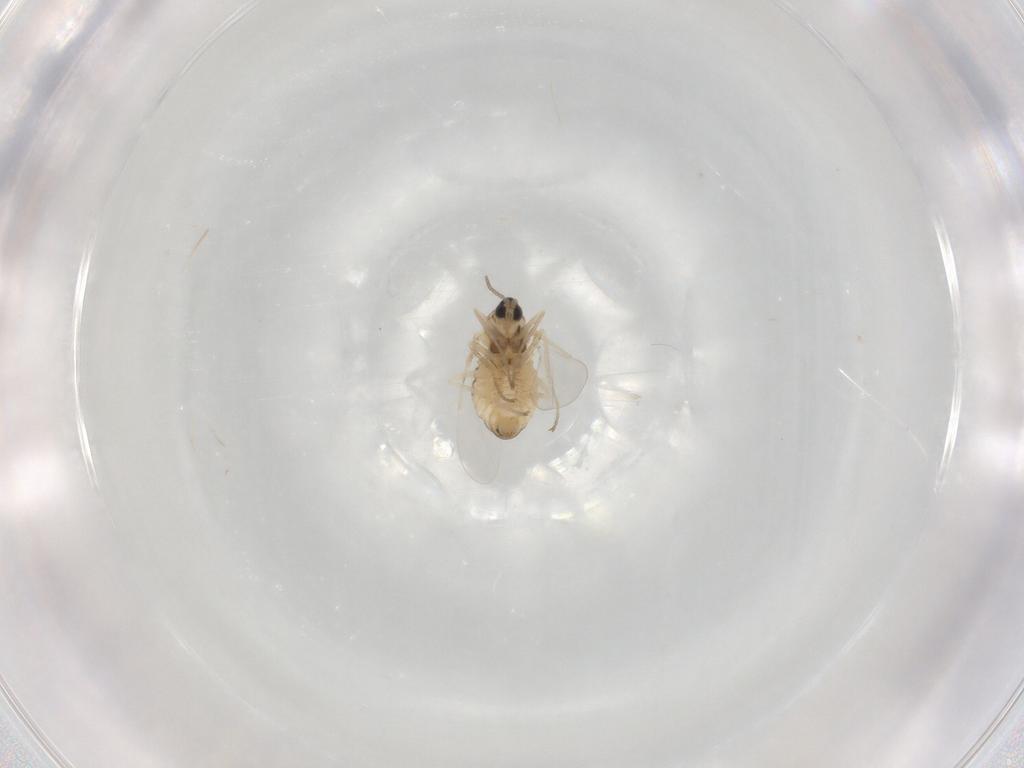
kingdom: Animalia
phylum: Arthropoda
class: Insecta
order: Diptera
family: Cecidomyiidae
